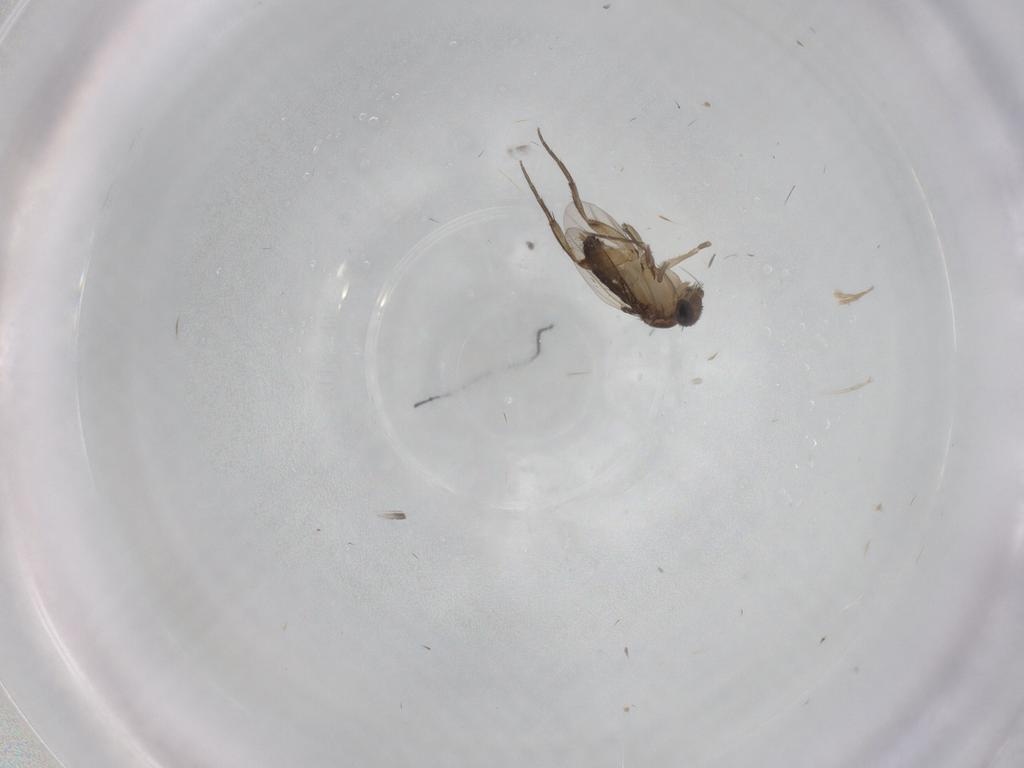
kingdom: Animalia
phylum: Arthropoda
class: Insecta
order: Diptera
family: Phoridae
